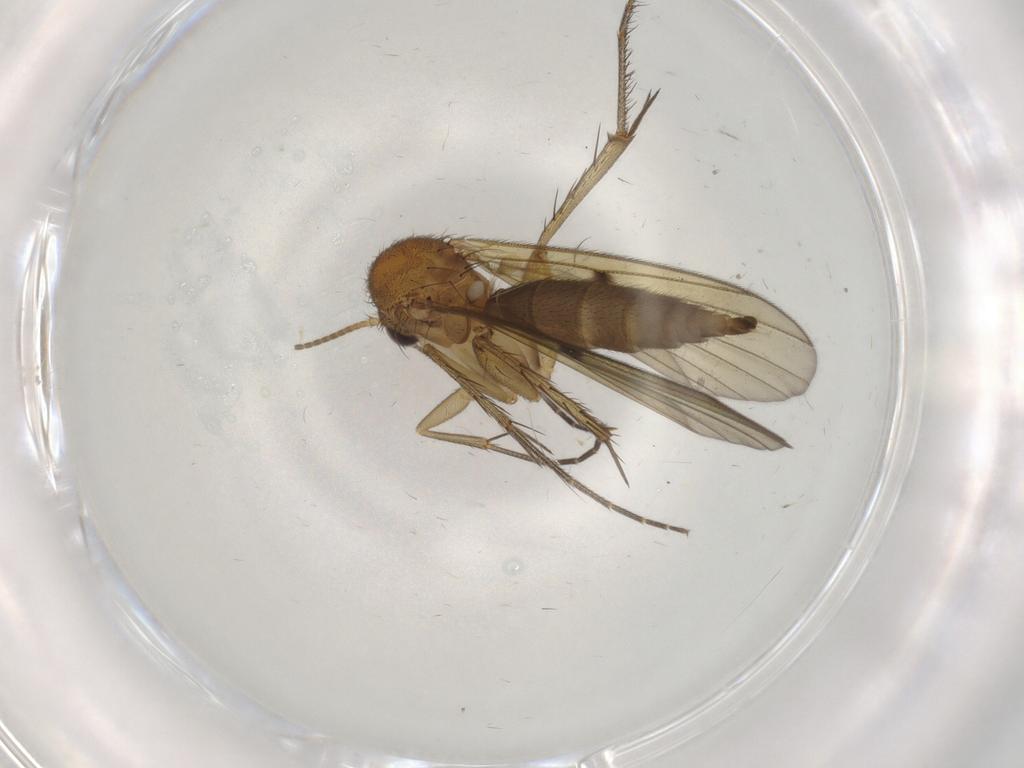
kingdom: Animalia
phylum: Arthropoda
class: Insecta
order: Diptera
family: Mycetophilidae
